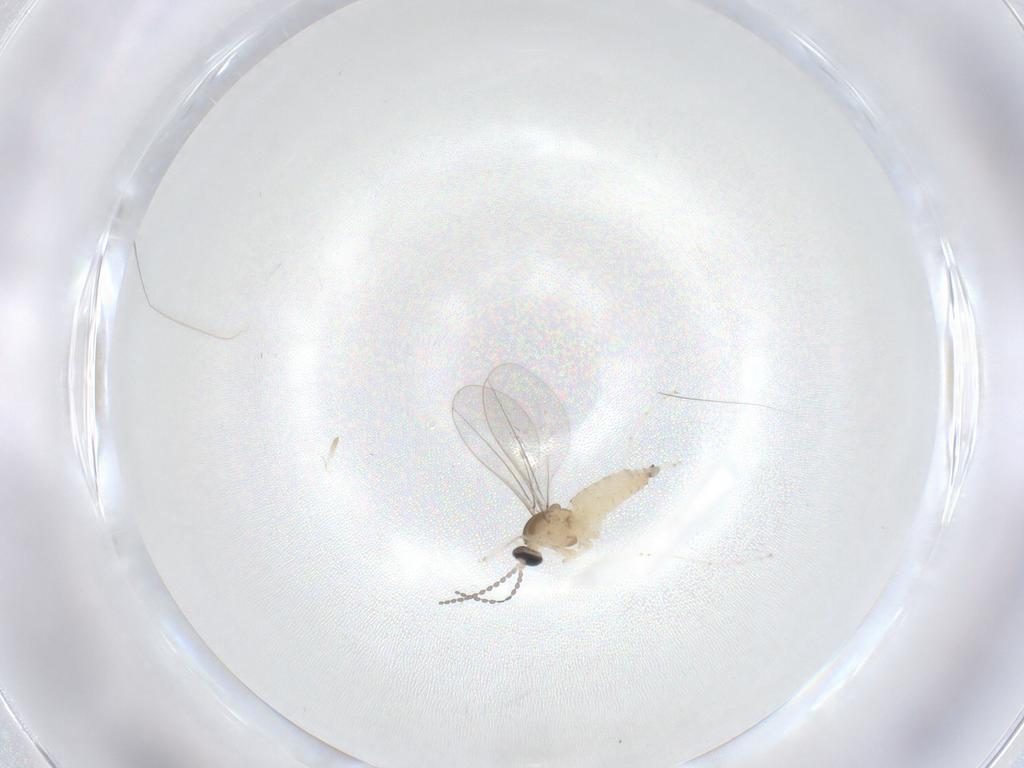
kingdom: Animalia
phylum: Arthropoda
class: Insecta
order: Diptera
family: Cecidomyiidae
